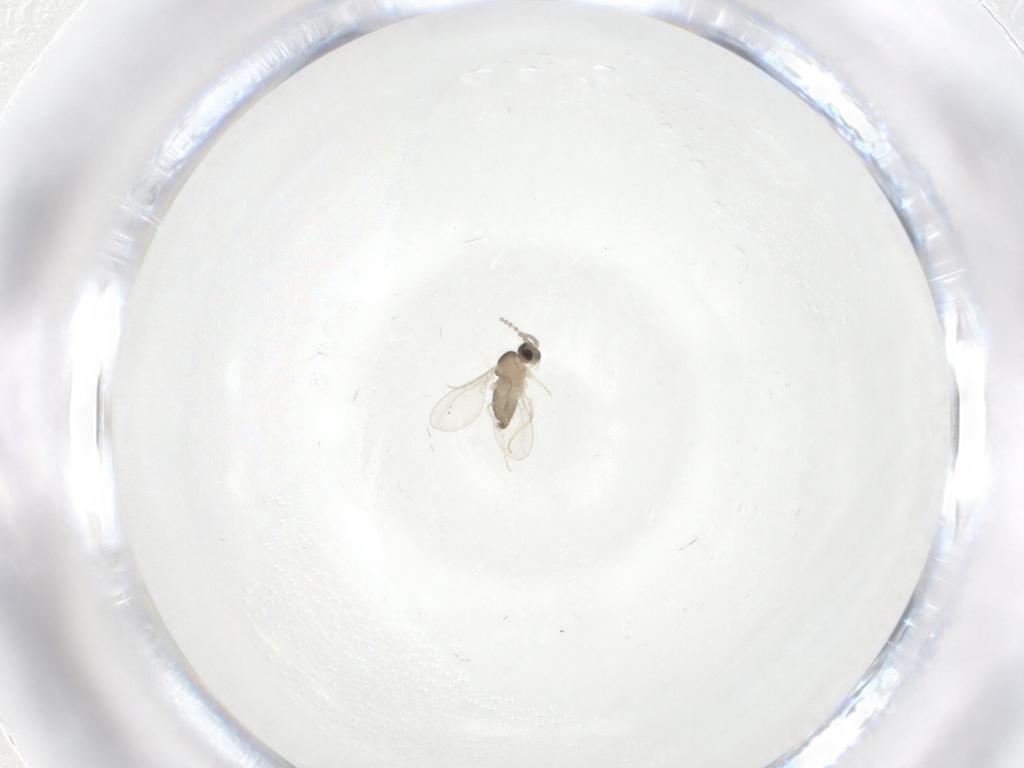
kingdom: Animalia
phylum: Arthropoda
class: Insecta
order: Diptera
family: Cecidomyiidae
